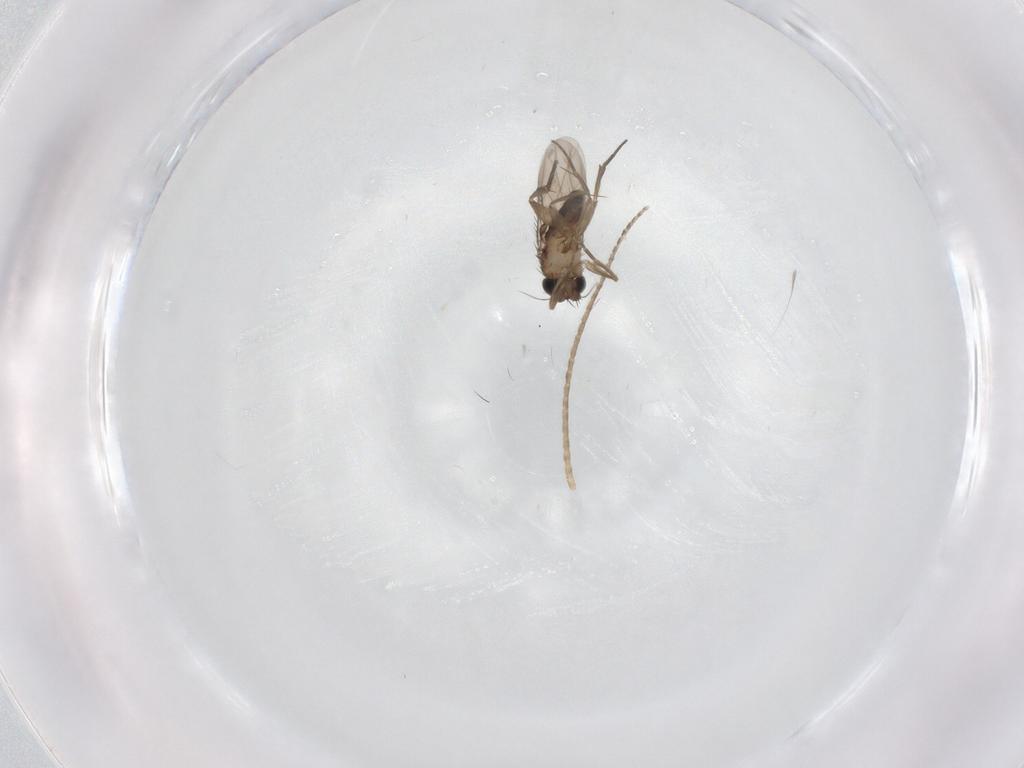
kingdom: Animalia
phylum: Arthropoda
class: Insecta
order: Diptera
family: Phoridae
